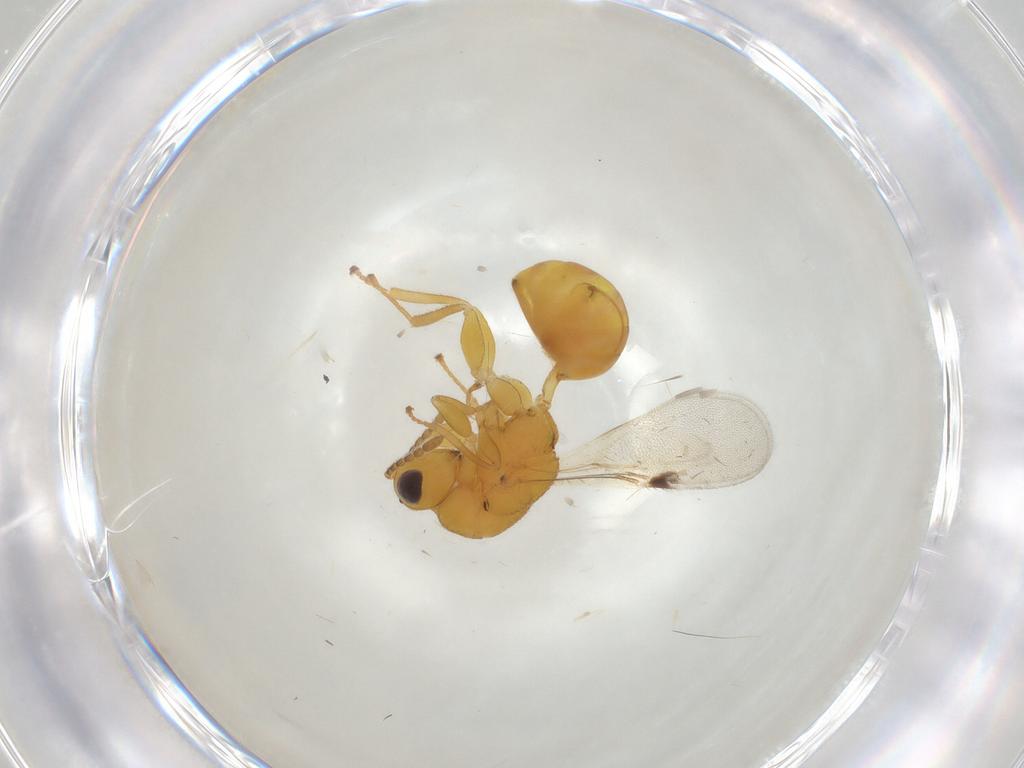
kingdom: Animalia
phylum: Arthropoda
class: Insecta
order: Hymenoptera
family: Eurytomidae
